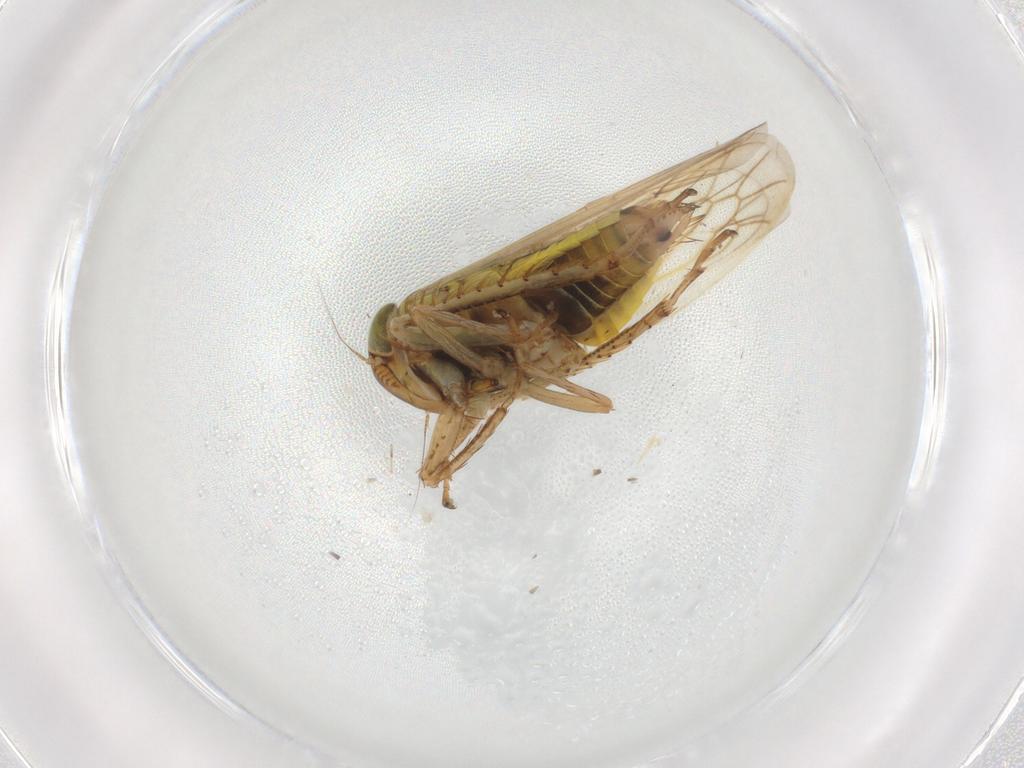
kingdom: Animalia
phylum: Arthropoda
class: Insecta
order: Hemiptera
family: Cicadellidae
